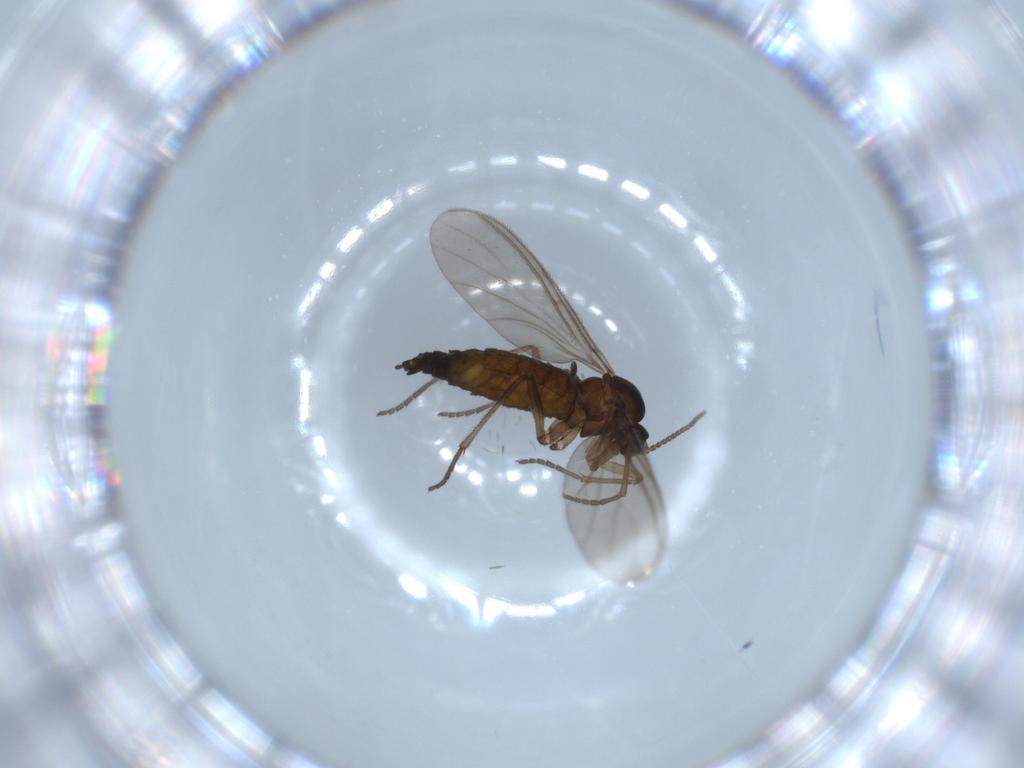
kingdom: Animalia
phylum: Arthropoda
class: Insecta
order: Diptera
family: Sciaridae
